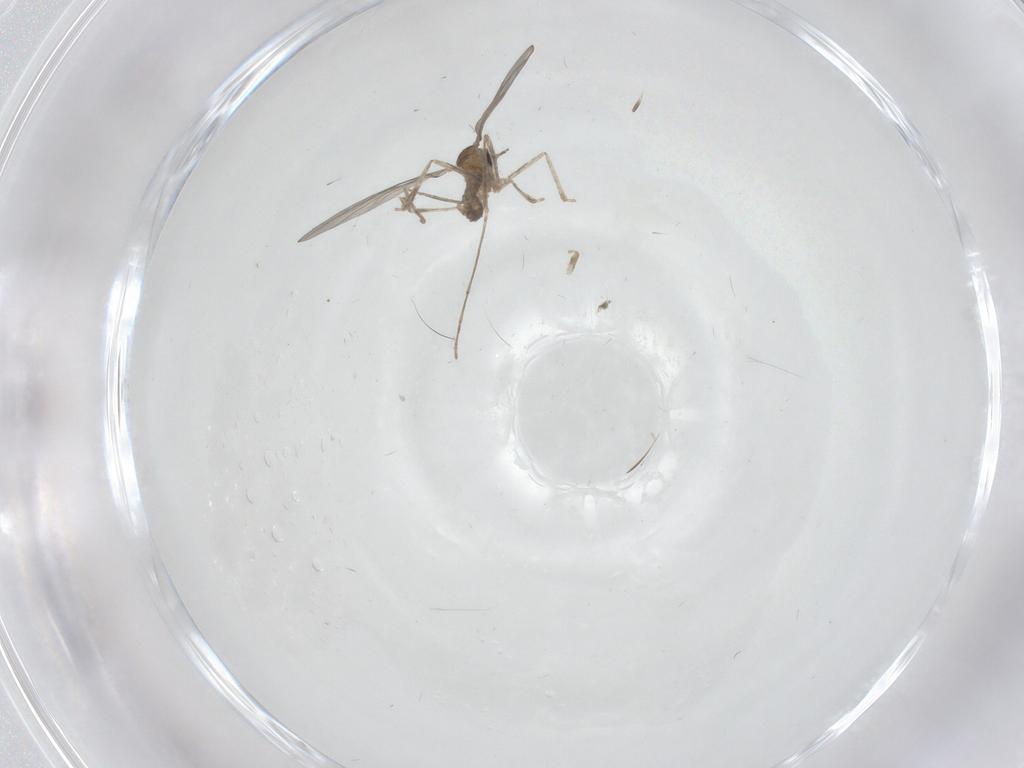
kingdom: Animalia
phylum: Arthropoda
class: Insecta
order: Diptera
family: Cecidomyiidae
